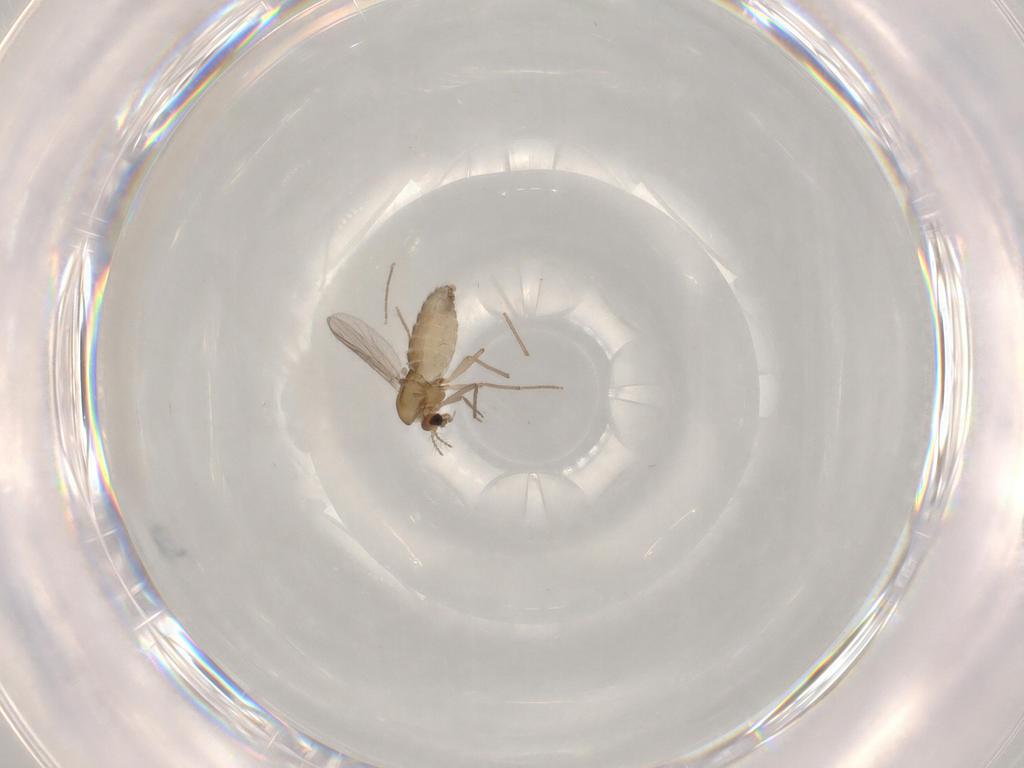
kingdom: Animalia
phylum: Arthropoda
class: Insecta
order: Diptera
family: Chironomidae
